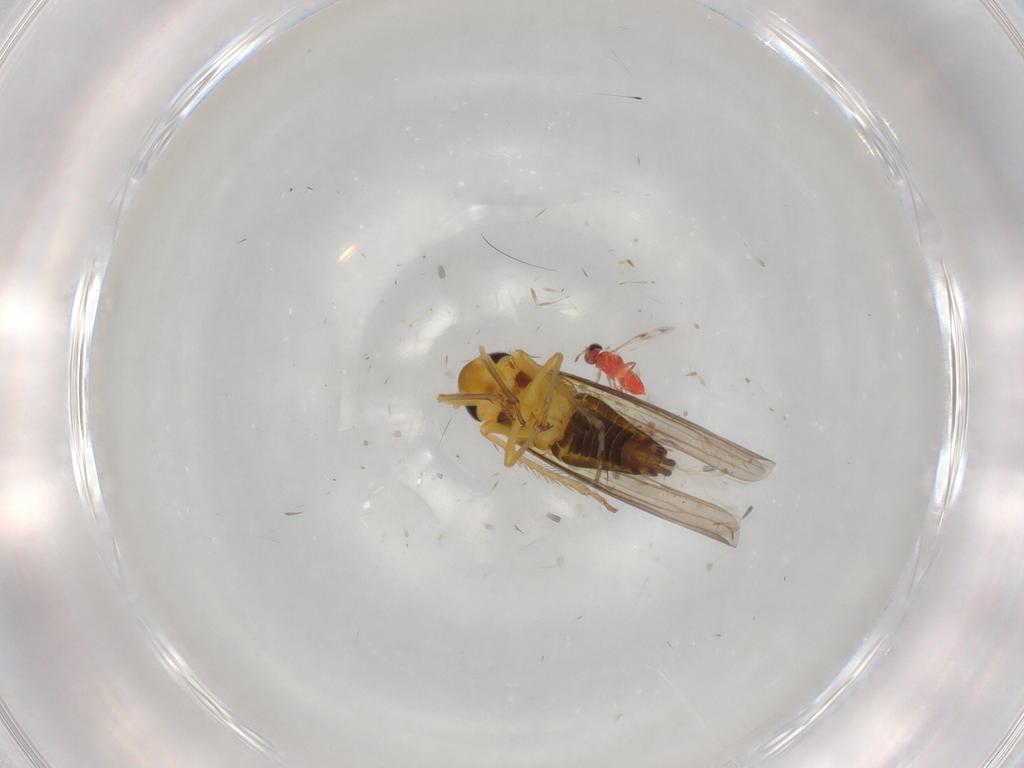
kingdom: Animalia
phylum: Arthropoda
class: Insecta
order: Hemiptera
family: Cicadellidae
